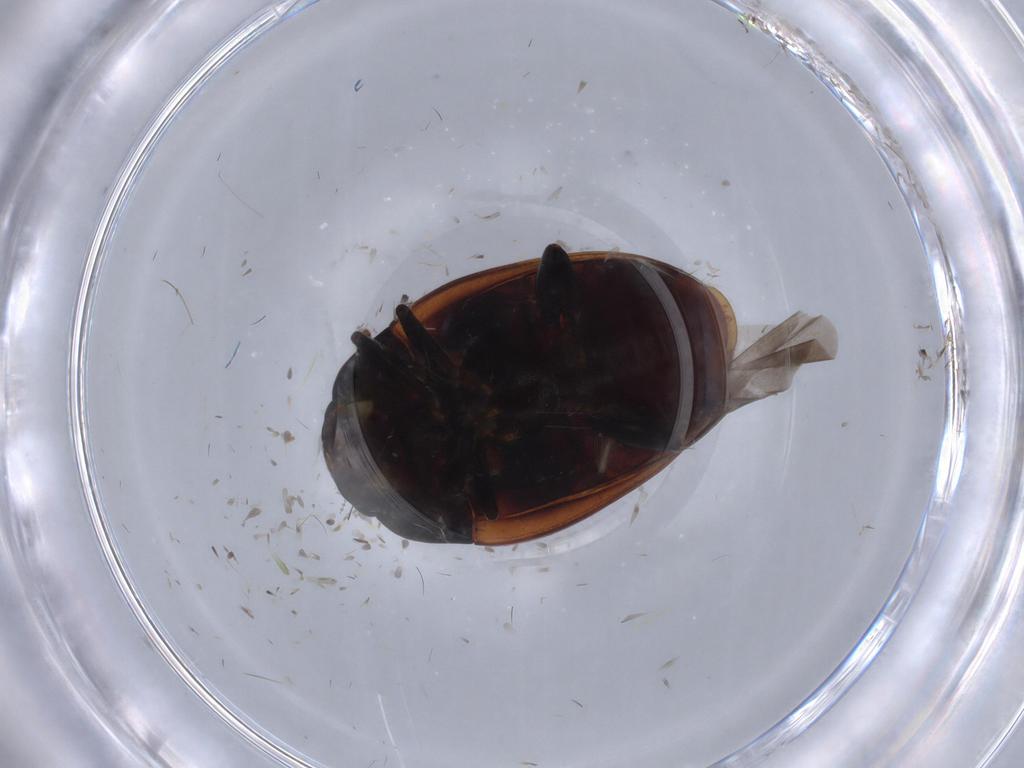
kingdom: Animalia
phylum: Arthropoda
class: Insecta
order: Coleoptera
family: Erotylidae
